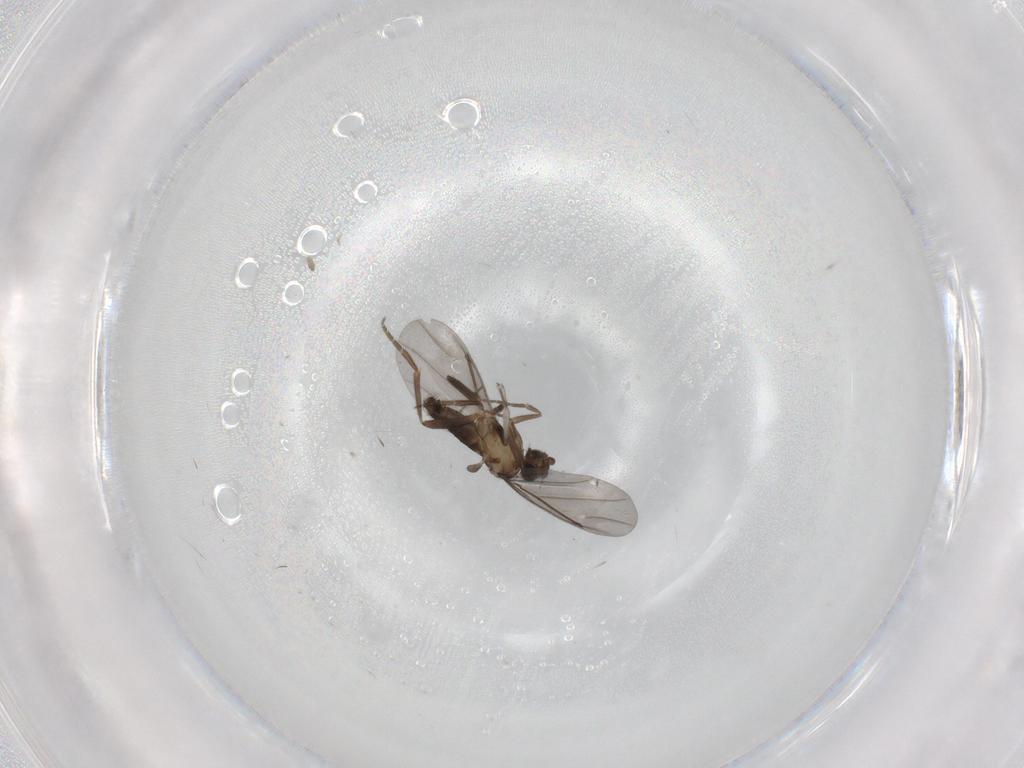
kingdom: Animalia
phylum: Arthropoda
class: Insecta
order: Diptera
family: Phoridae
